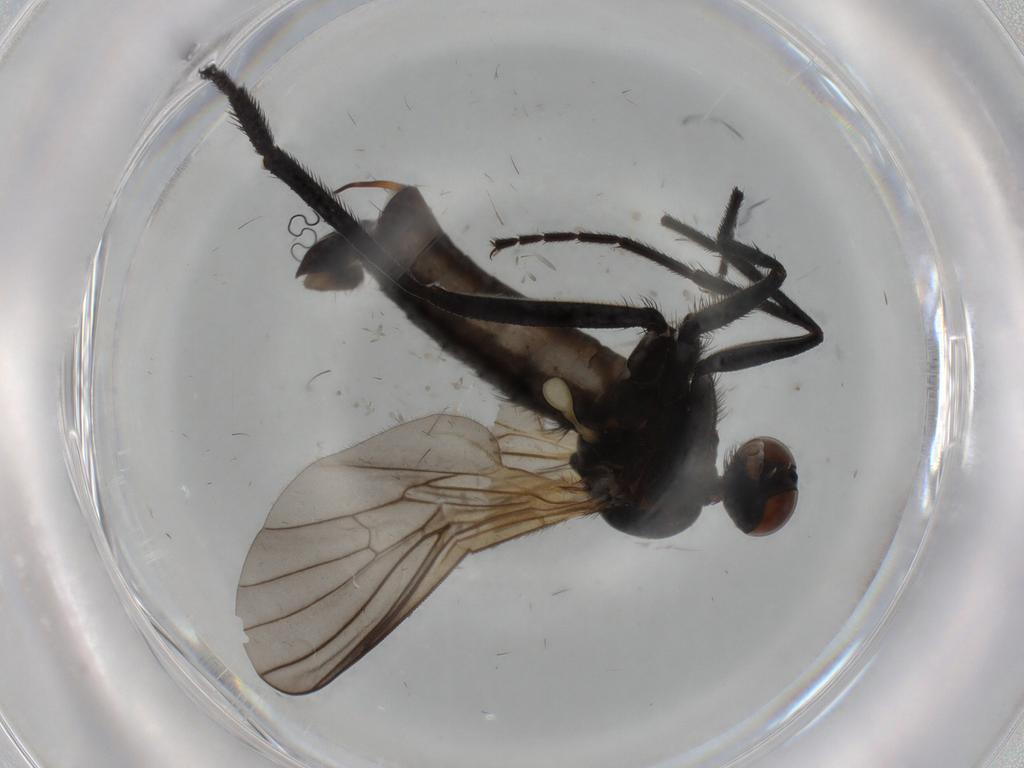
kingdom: Animalia
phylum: Arthropoda
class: Insecta
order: Diptera
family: Empididae
